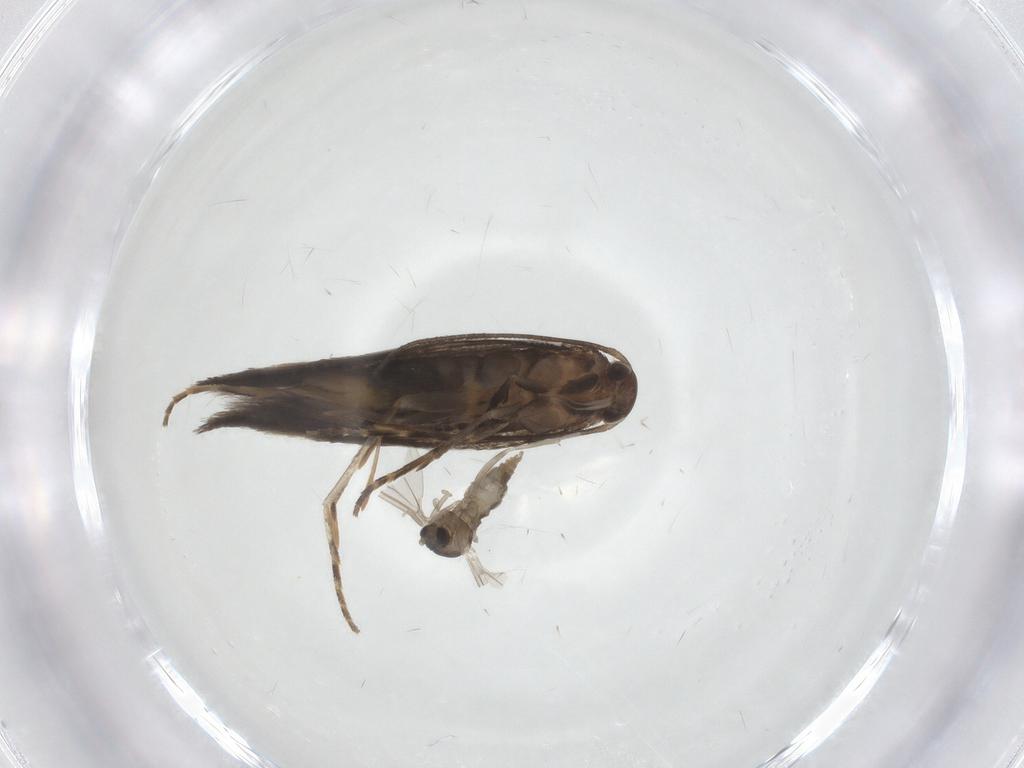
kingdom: Animalia
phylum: Arthropoda
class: Insecta
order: Diptera
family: Cecidomyiidae
